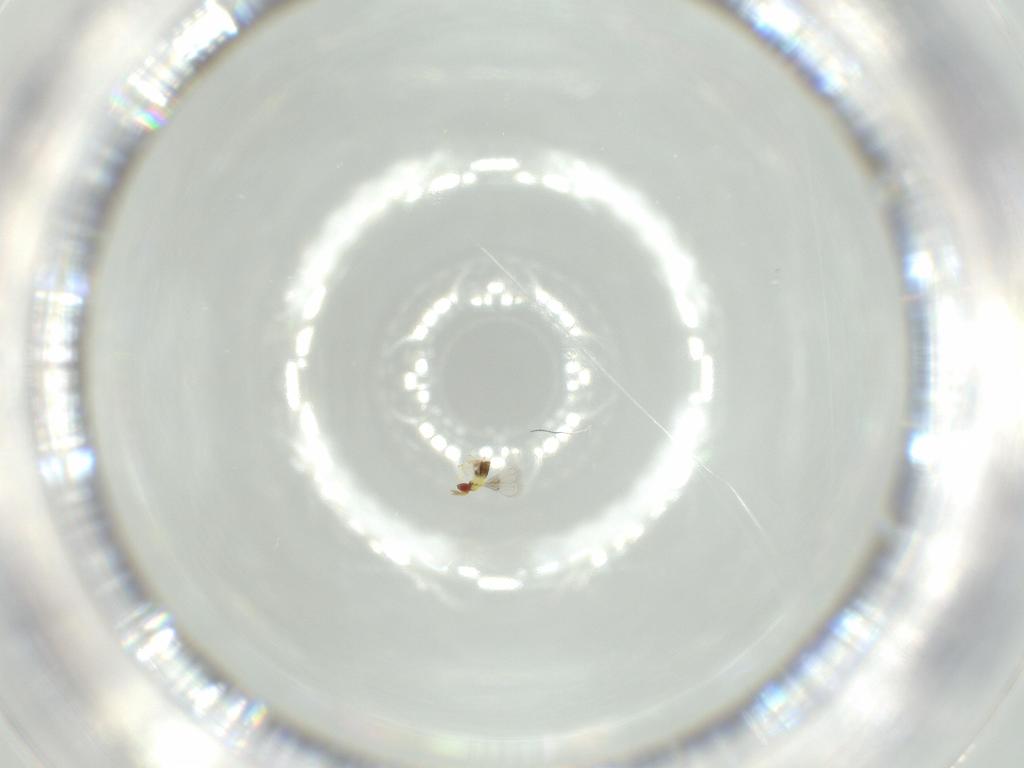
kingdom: Animalia
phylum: Arthropoda
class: Insecta
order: Hymenoptera
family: Trichogrammatidae
